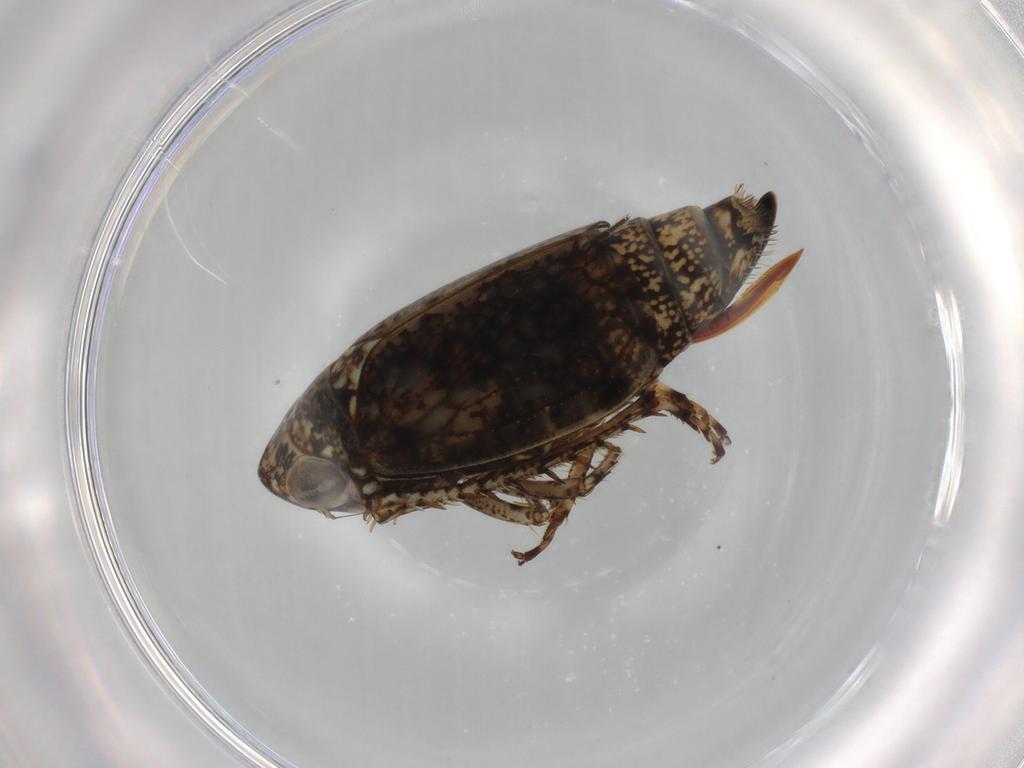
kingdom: Animalia
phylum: Arthropoda
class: Insecta
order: Hemiptera
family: Cicadellidae
